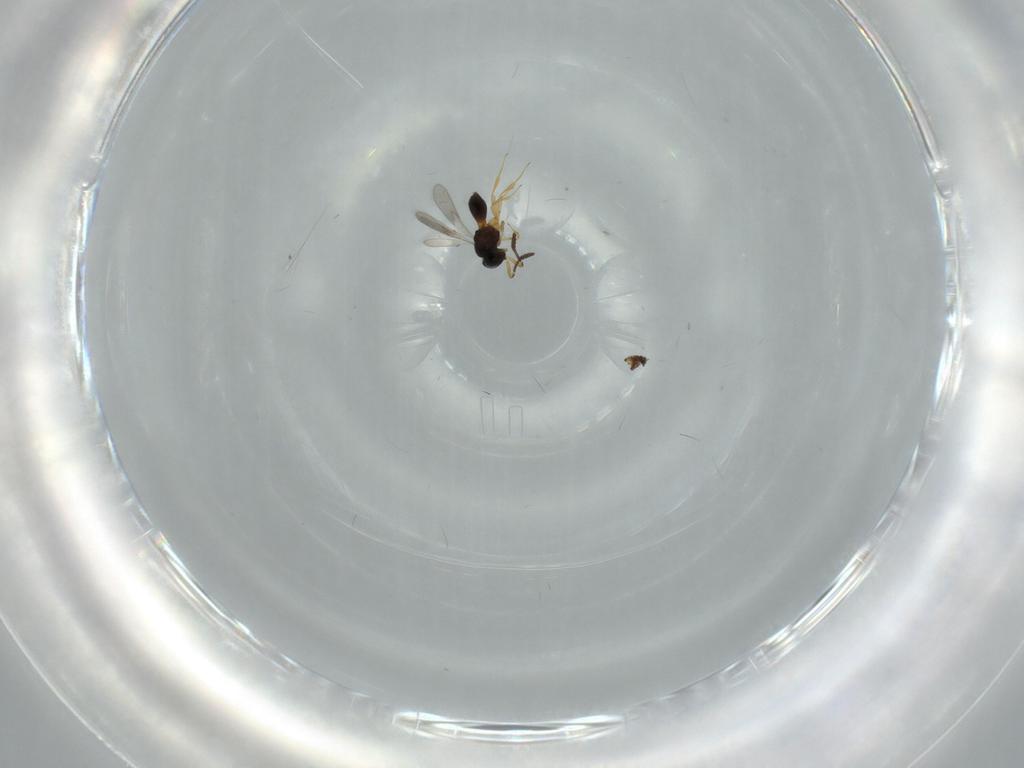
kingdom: Animalia
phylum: Arthropoda
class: Insecta
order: Hymenoptera
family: Scelionidae
